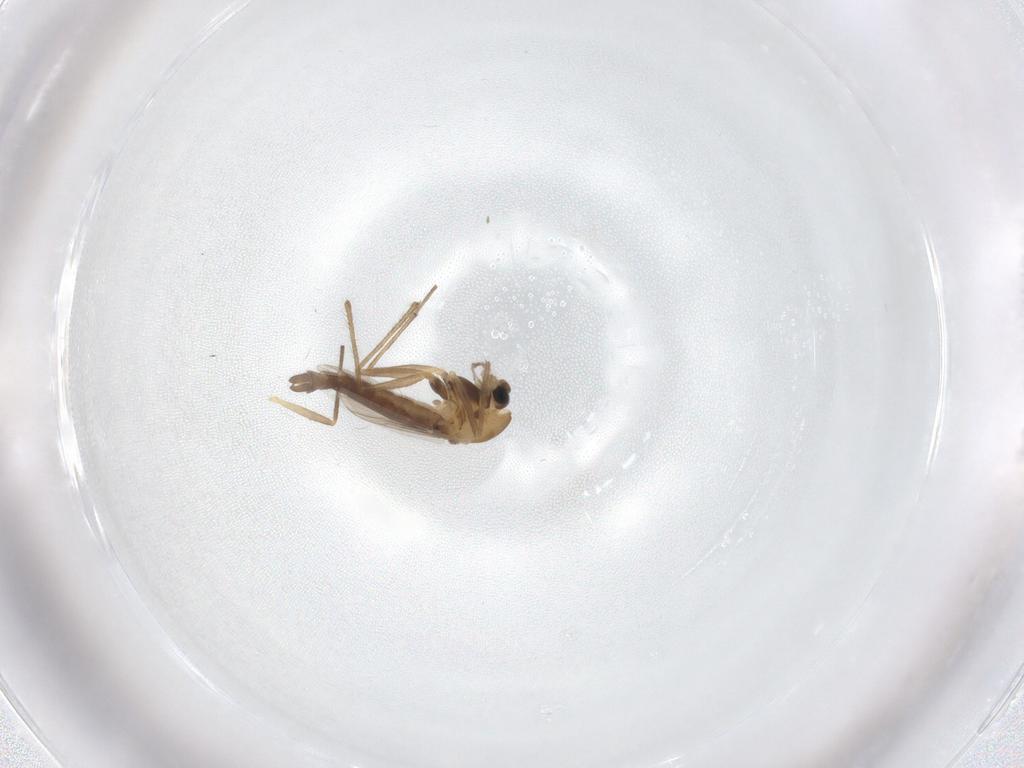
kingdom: Animalia
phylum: Arthropoda
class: Insecta
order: Diptera
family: Chironomidae
